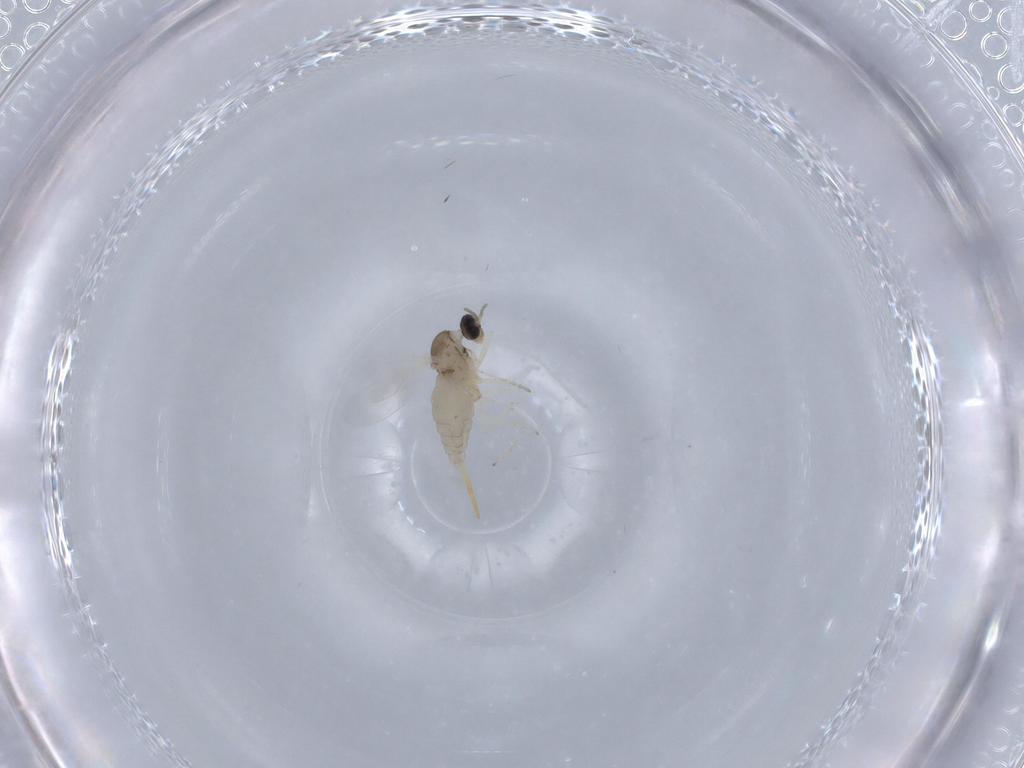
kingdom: Animalia
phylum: Arthropoda
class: Insecta
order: Diptera
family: Cecidomyiidae
